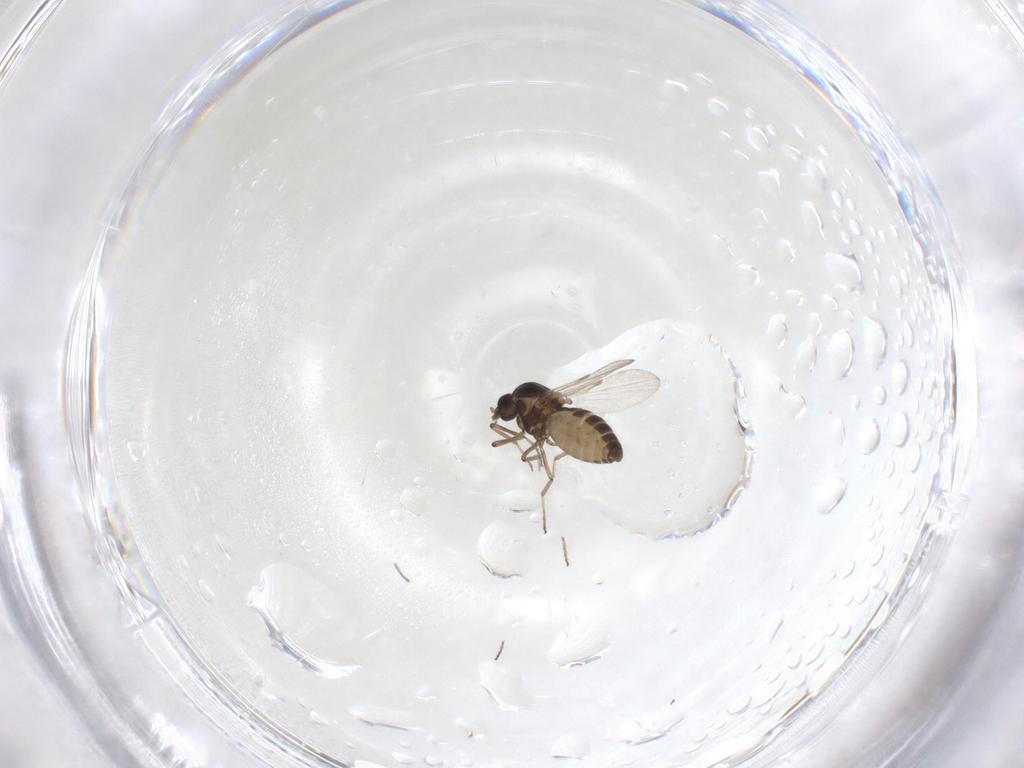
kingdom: Animalia
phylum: Arthropoda
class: Insecta
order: Diptera
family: Ceratopogonidae
